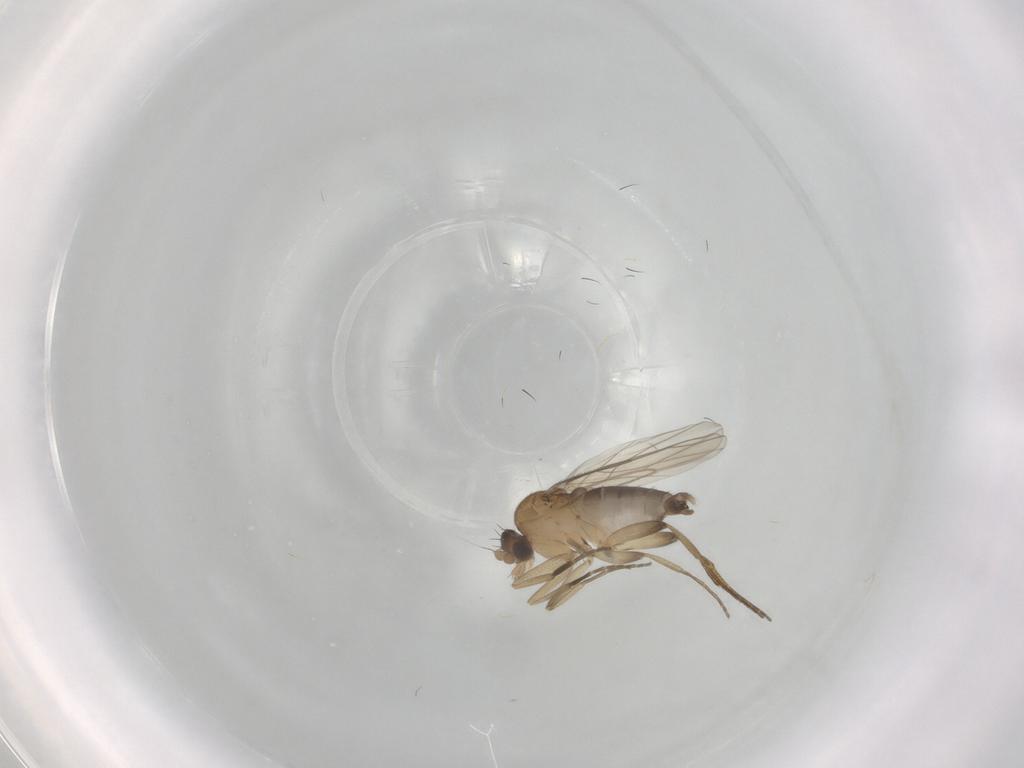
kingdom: Animalia
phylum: Arthropoda
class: Insecta
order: Diptera
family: Phoridae
